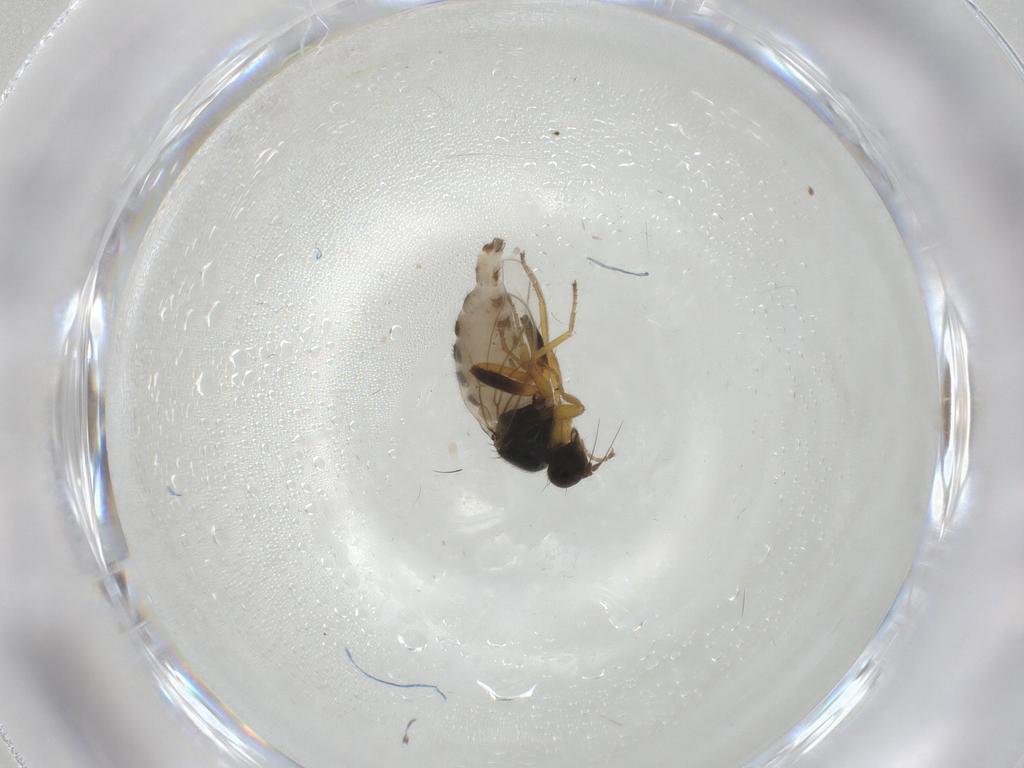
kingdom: Animalia
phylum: Arthropoda
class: Insecta
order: Diptera
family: Hybotidae
